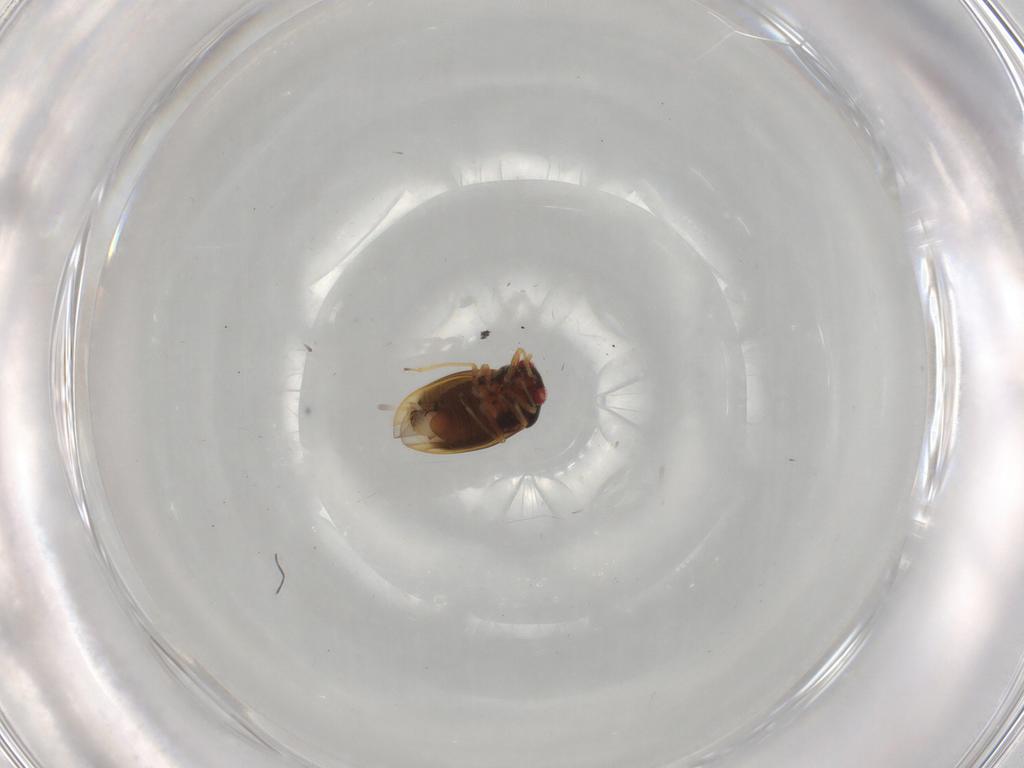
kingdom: Animalia
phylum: Arthropoda
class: Insecta
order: Hemiptera
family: Schizopteridae
